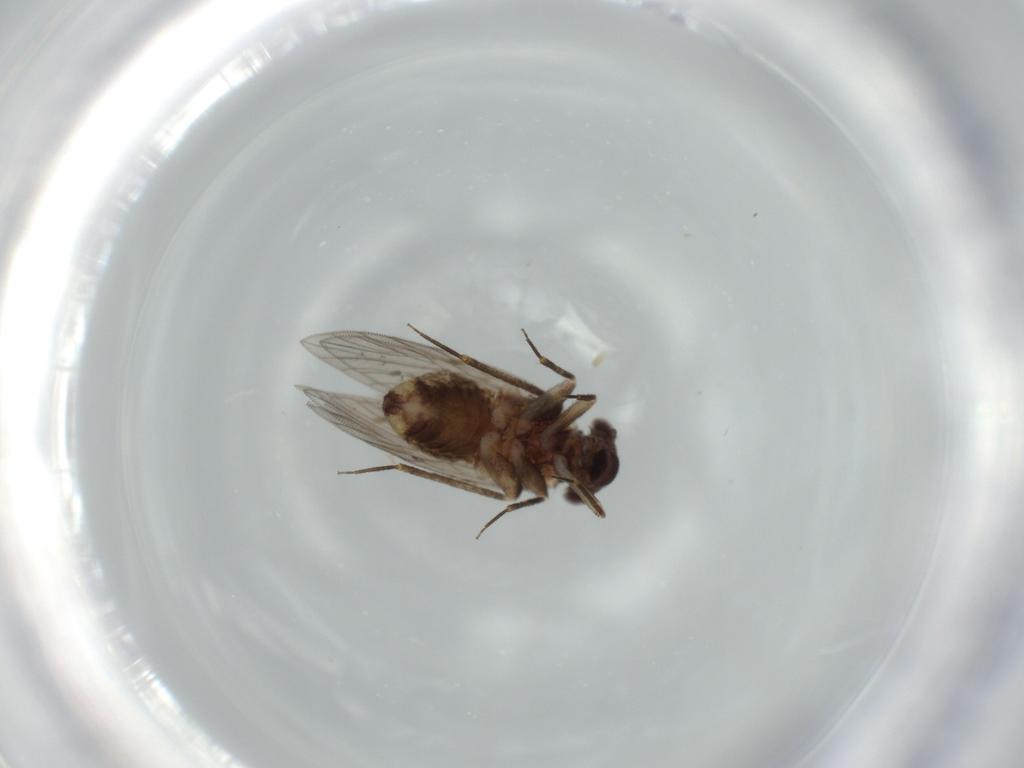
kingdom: Animalia
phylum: Arthropoda
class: Insecta
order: Psocodea
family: Lepidopsocidae
